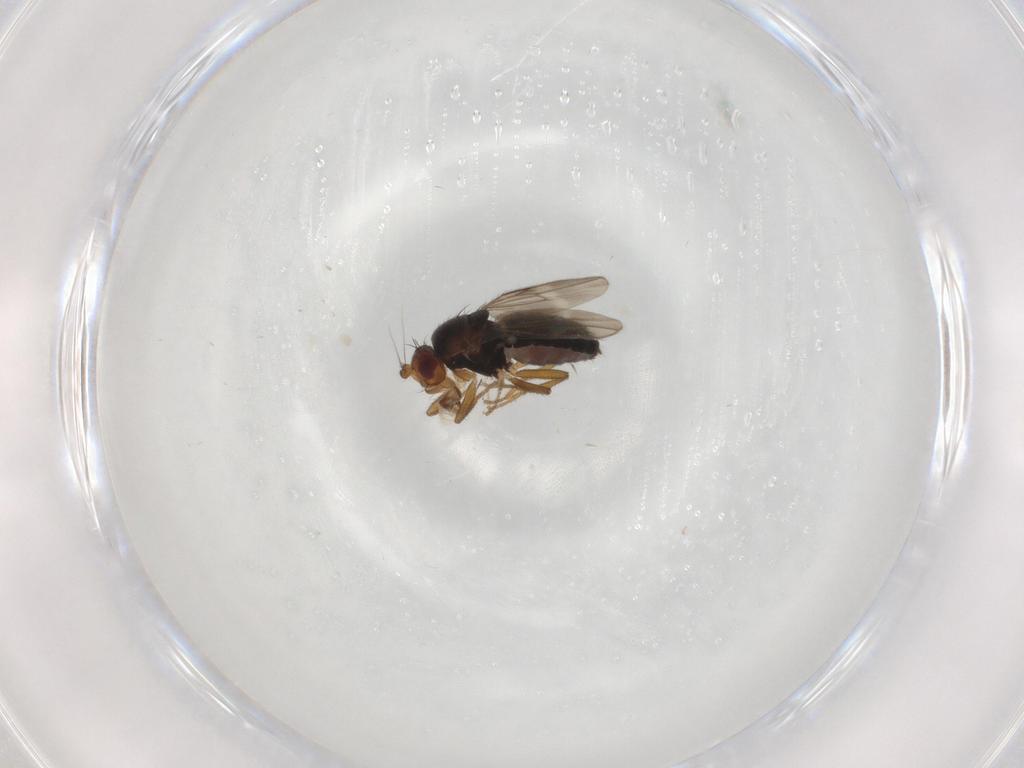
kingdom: Animalia
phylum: Arthropoda
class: Insecta
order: Diptera
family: Sphaeroceridae
